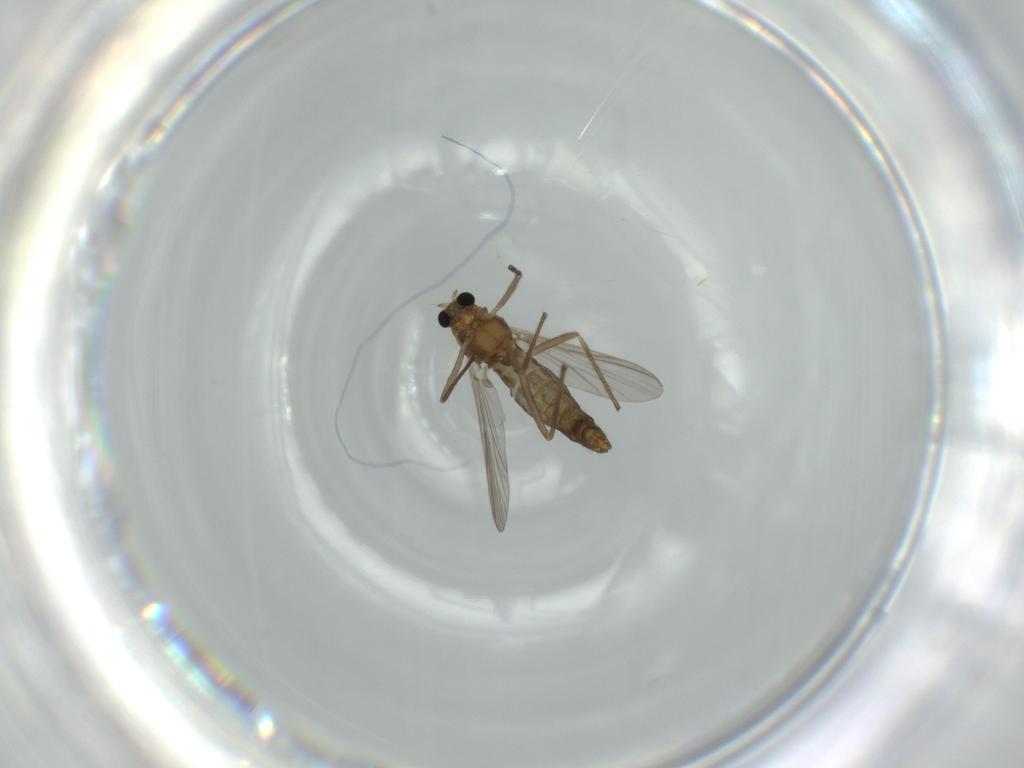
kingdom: Animalia
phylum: Arthropoda
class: Insecta
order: Diptera
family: Chironomidae
